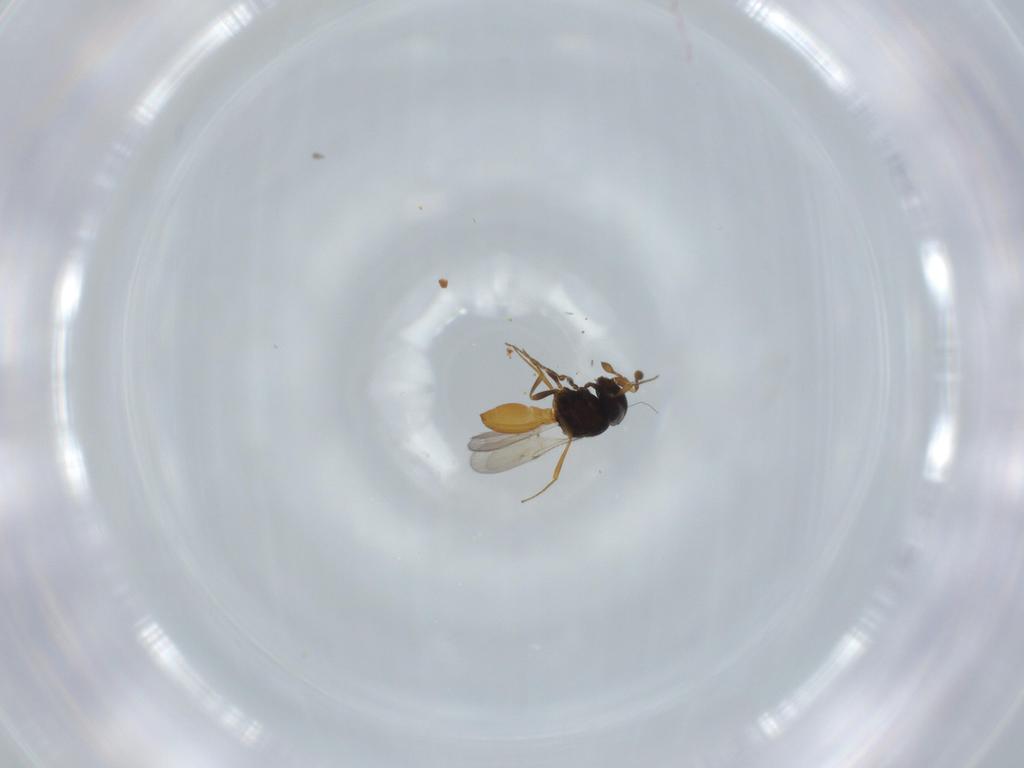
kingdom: Animalia
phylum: Arthropoda
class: Insecta
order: Hymenoptera
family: Scelionidae
